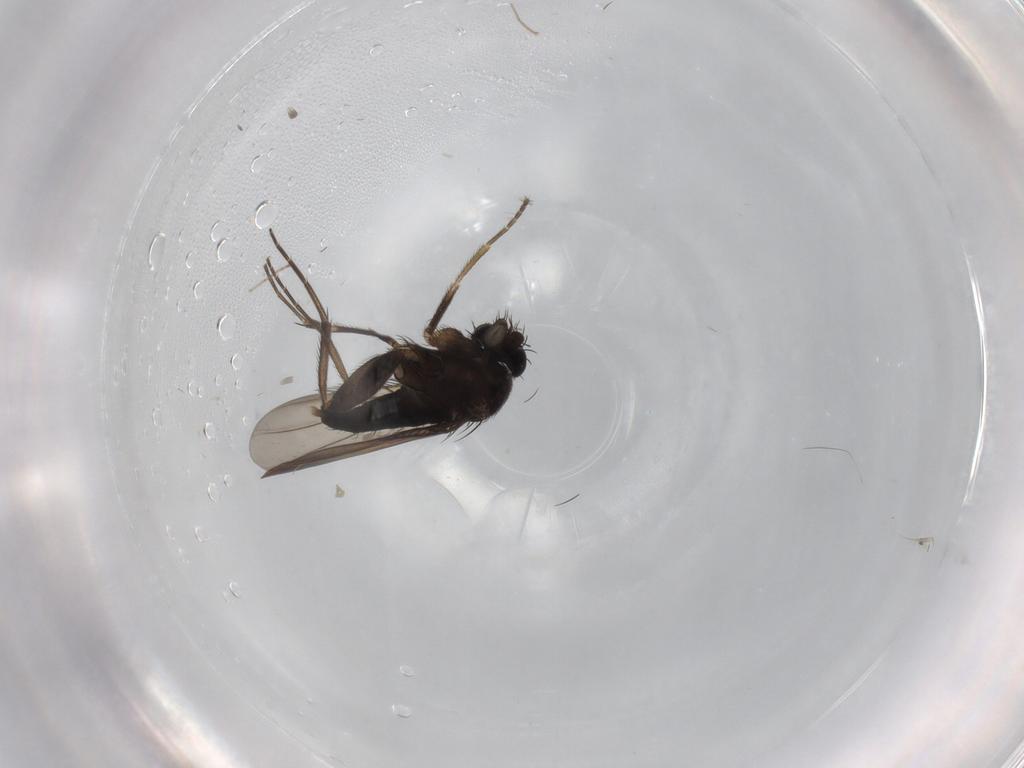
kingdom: Animalia
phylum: Arthropoda
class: Insecta
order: Diptera
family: Phoridae
